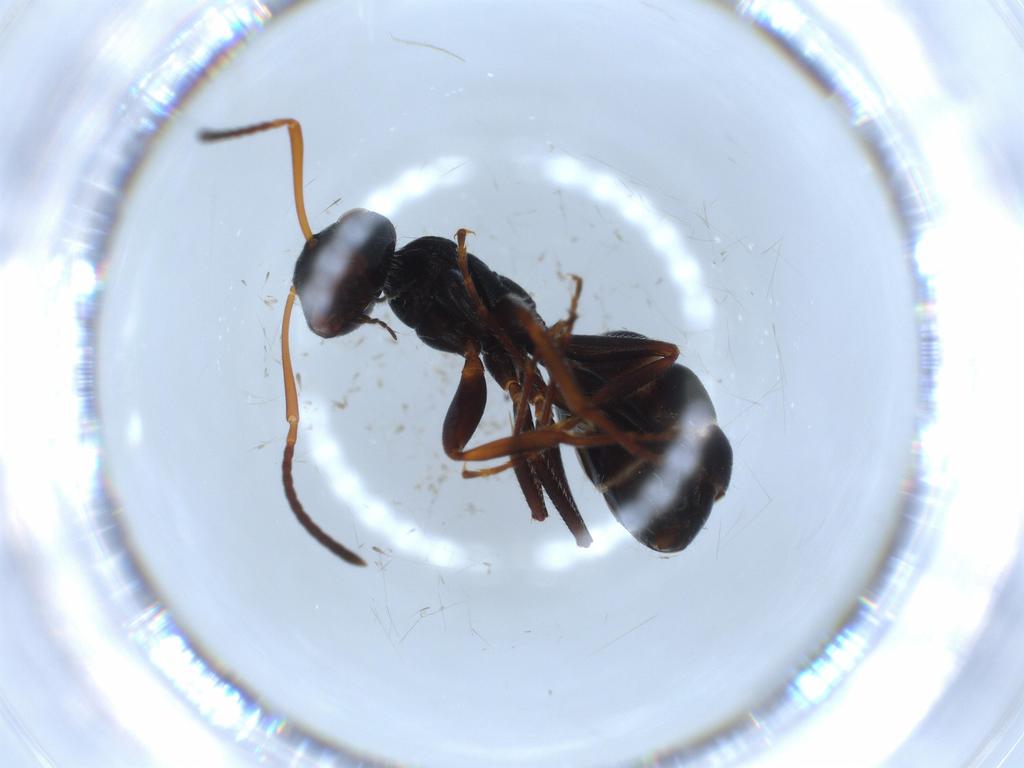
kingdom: Animalia
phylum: Arthropoda
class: Insecta
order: Hymenoptera
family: Formicidae
